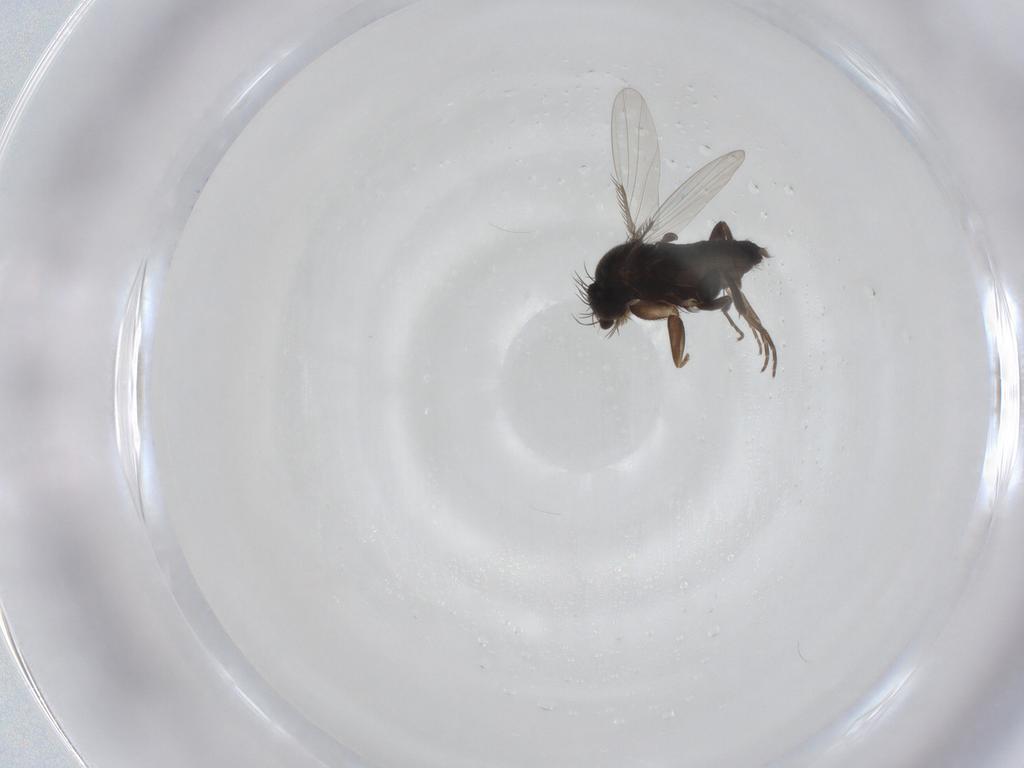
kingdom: Animalia
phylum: Arthropoda
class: Insecta
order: Diptera
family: Phoridae
